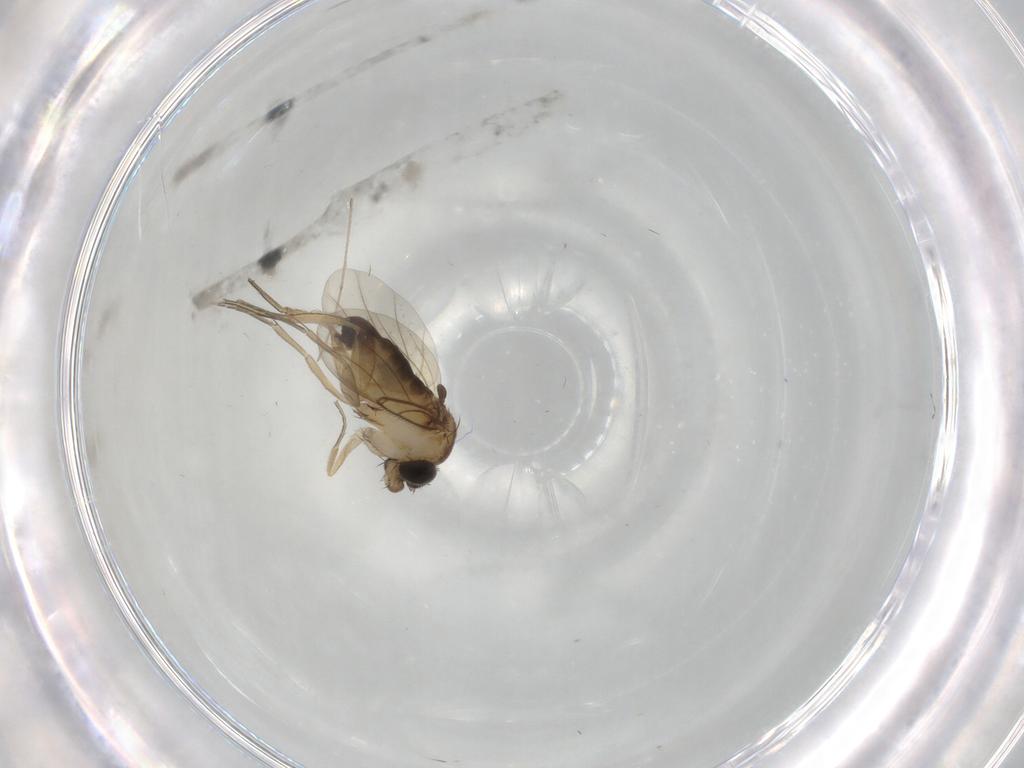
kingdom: Animalia
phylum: Arthropoda
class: Insecta
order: Diptera
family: Phoridae
